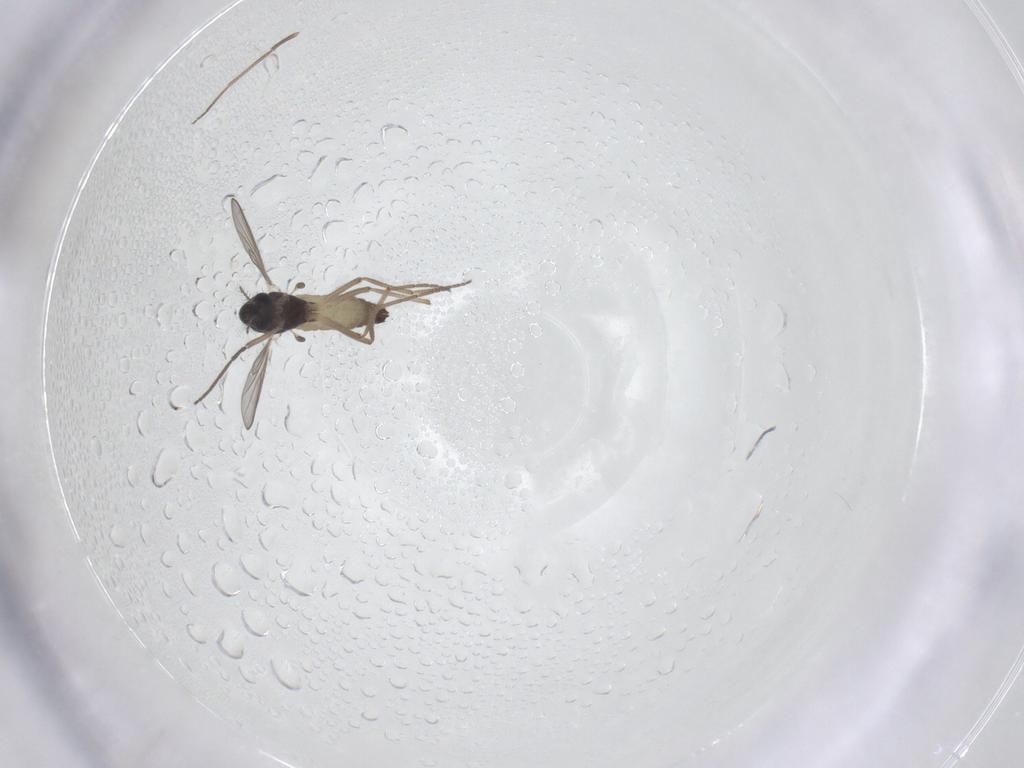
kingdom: Animalia
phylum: Arthropoda
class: Insecta
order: Diptera
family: Chironomidae
